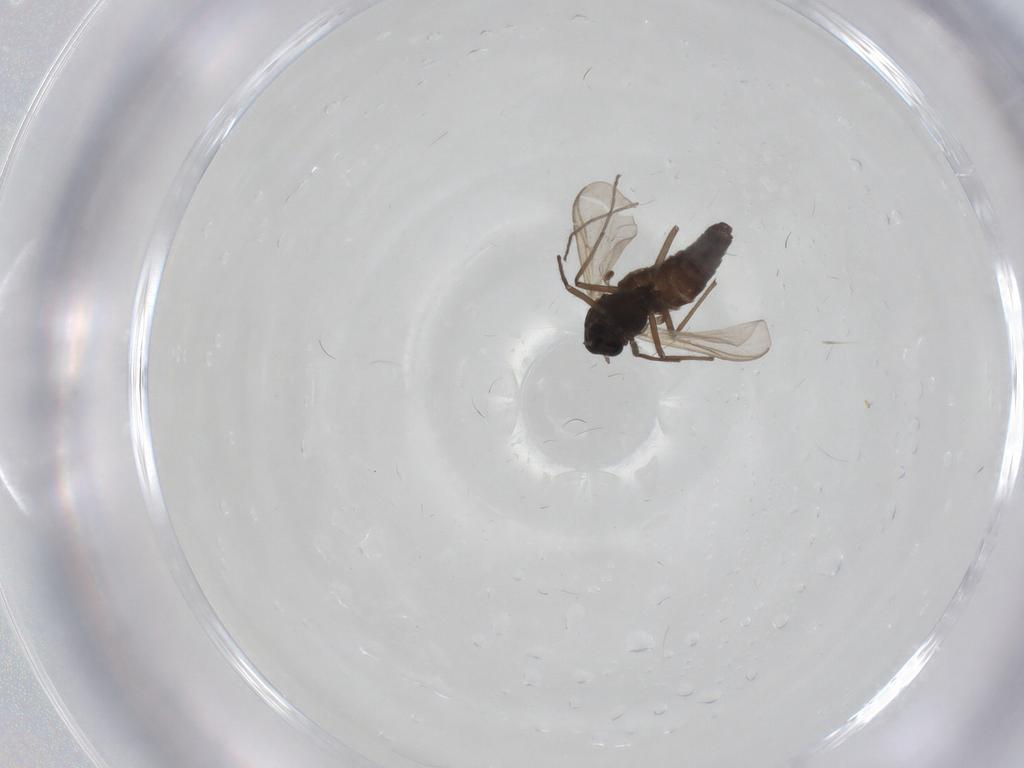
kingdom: Animalia
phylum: Arthropoda
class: Insecta
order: Diptera
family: Chironomidae
